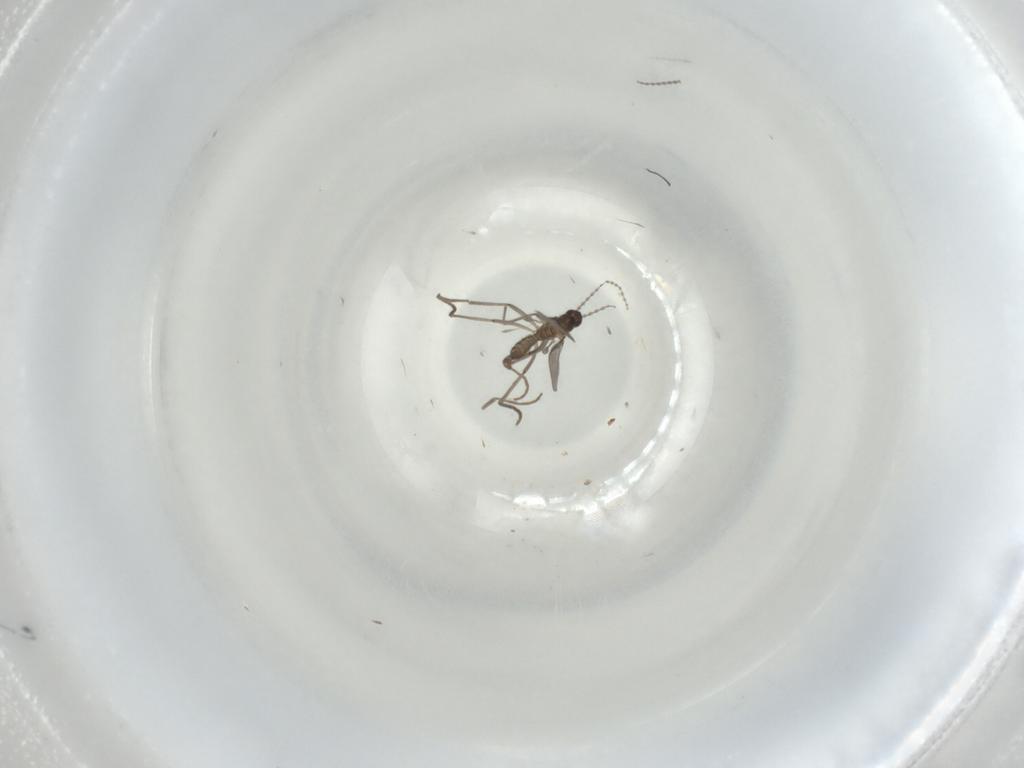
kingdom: Animalia
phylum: Arthropoda
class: Insecta
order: Diptera
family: Cecidomyiidae
